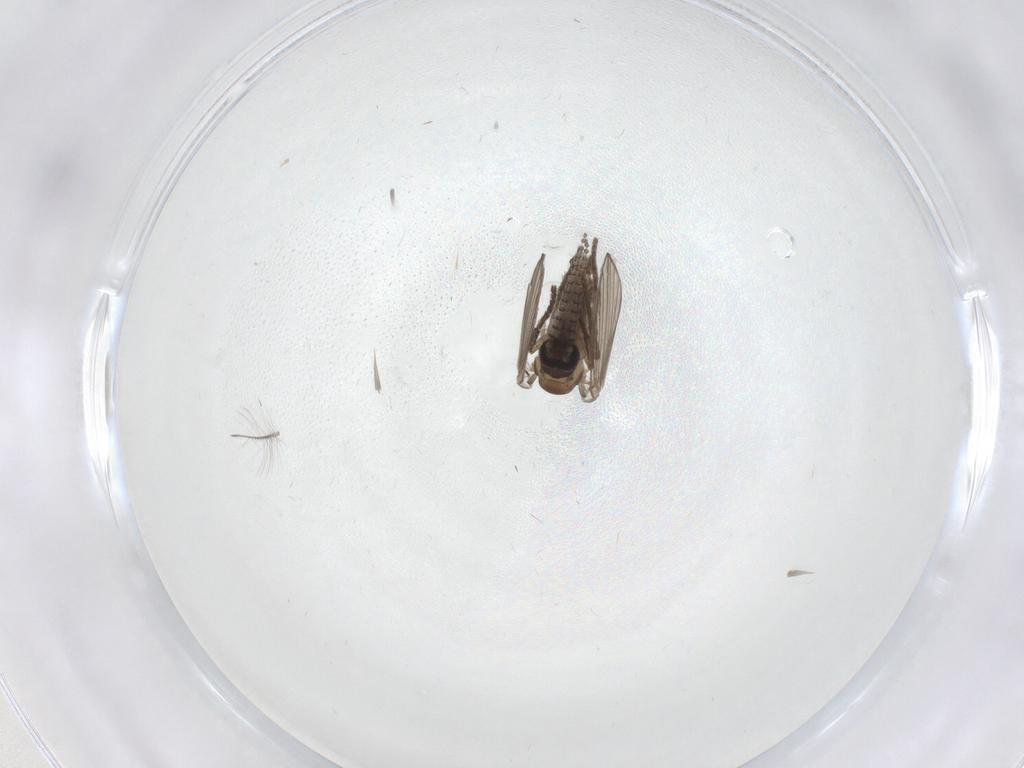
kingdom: Animalia
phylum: Arthropoda
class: Insecta
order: Diptera
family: Psychodidae
